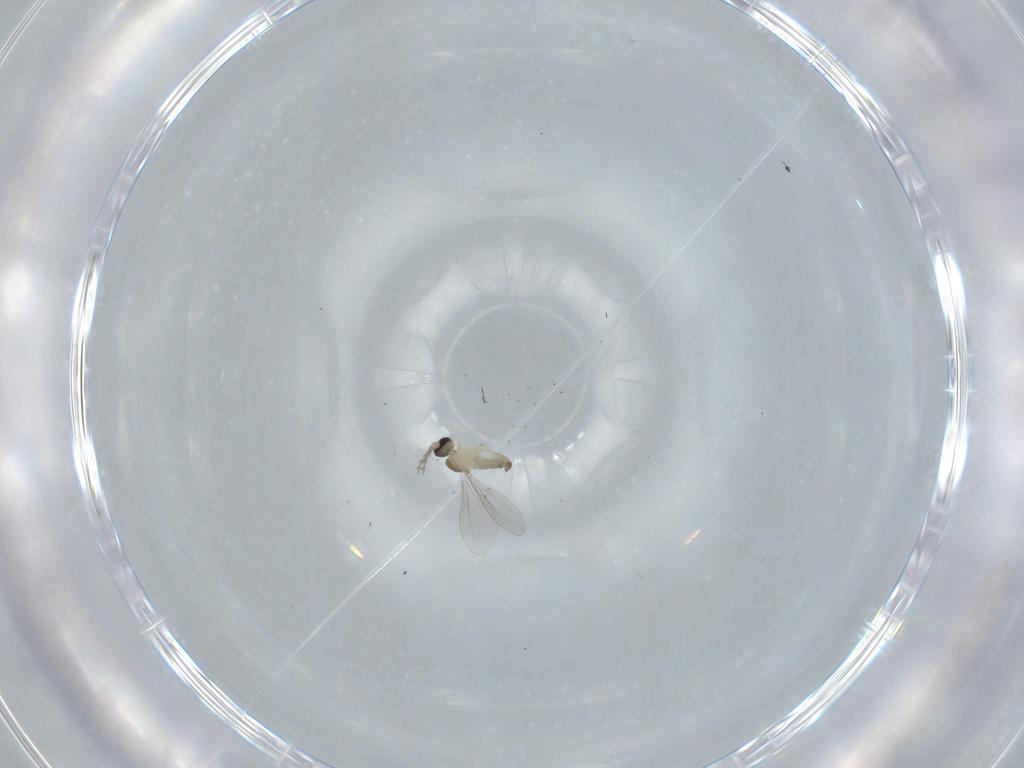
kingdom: Animalia
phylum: Arthropoda
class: Insecta
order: Diptera
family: Cecidomyiidae
